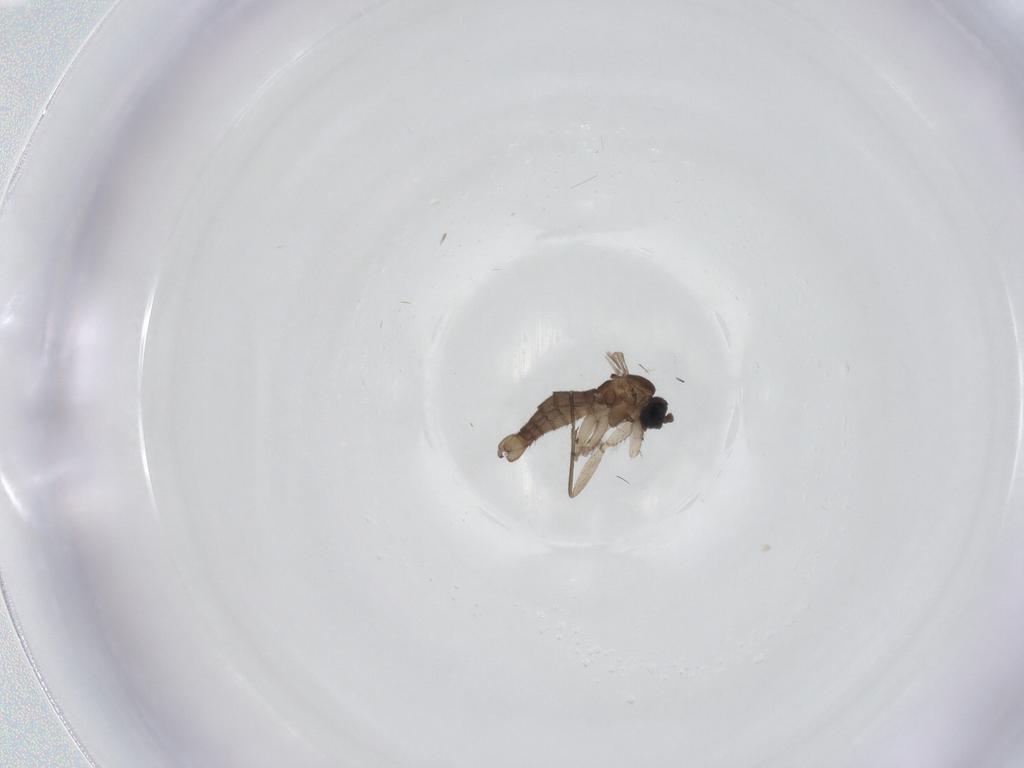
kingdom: Animalia
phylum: Arthropoda
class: Insecta
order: Diptera
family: Sciaridae
